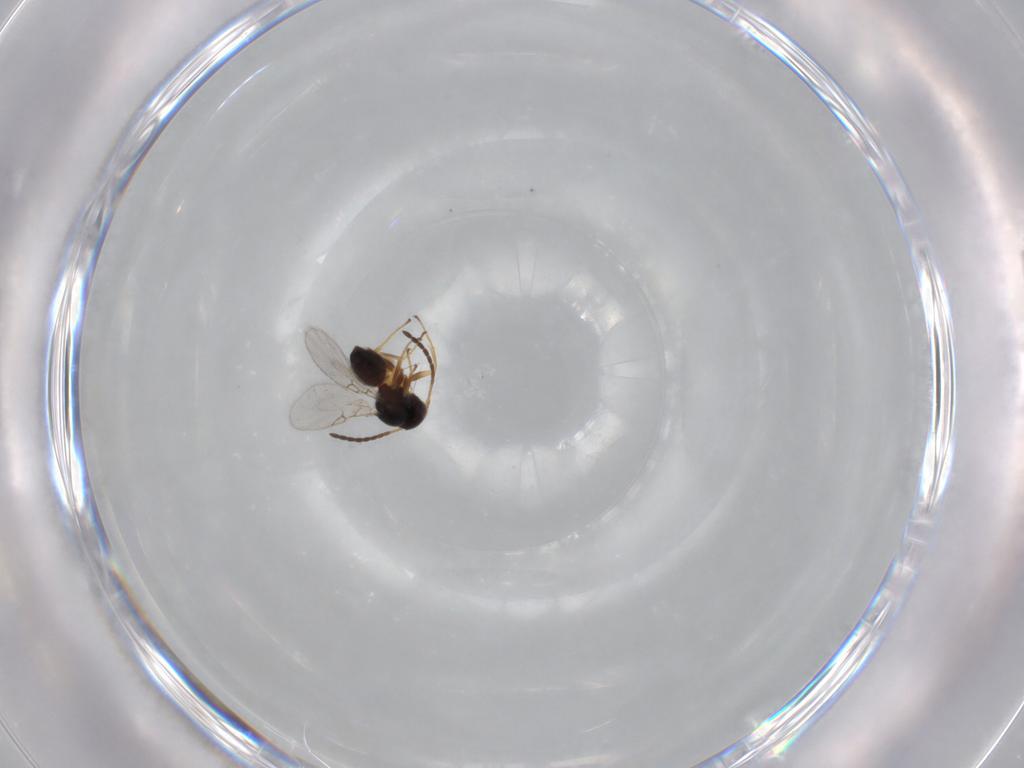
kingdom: Animalia
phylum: Arthropoda
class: Insecta
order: Hymenoptera
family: Figitidae
